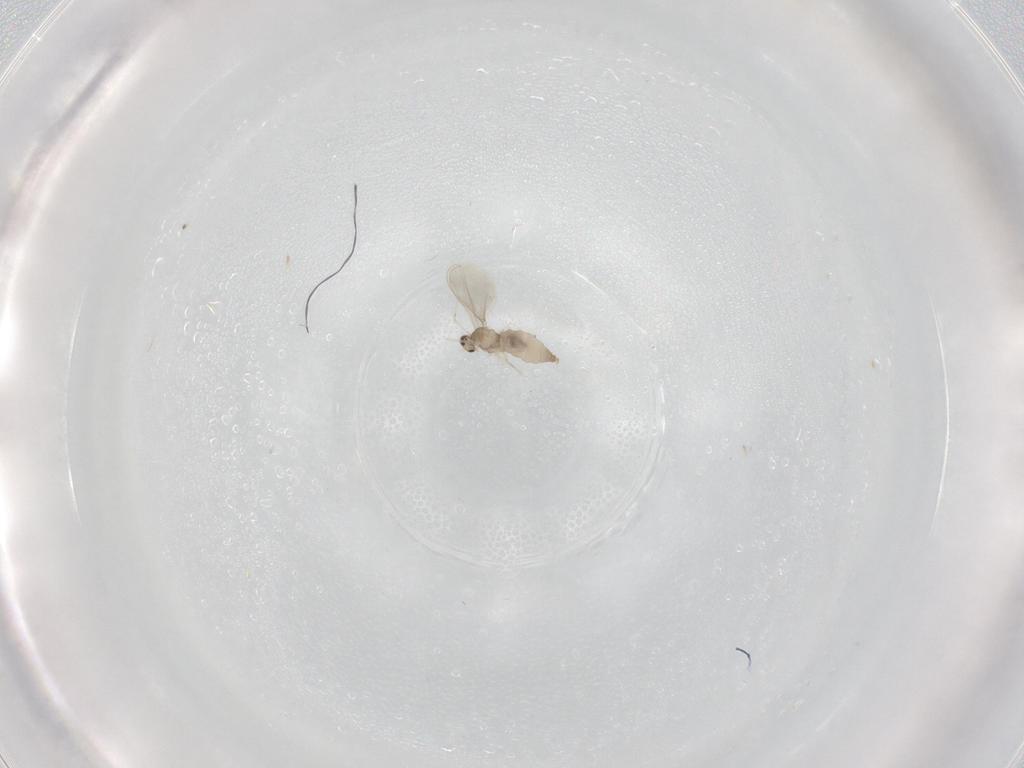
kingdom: Animalia
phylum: Arthropoda
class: Insecta
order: Diptera
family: Cecidomyiidae
